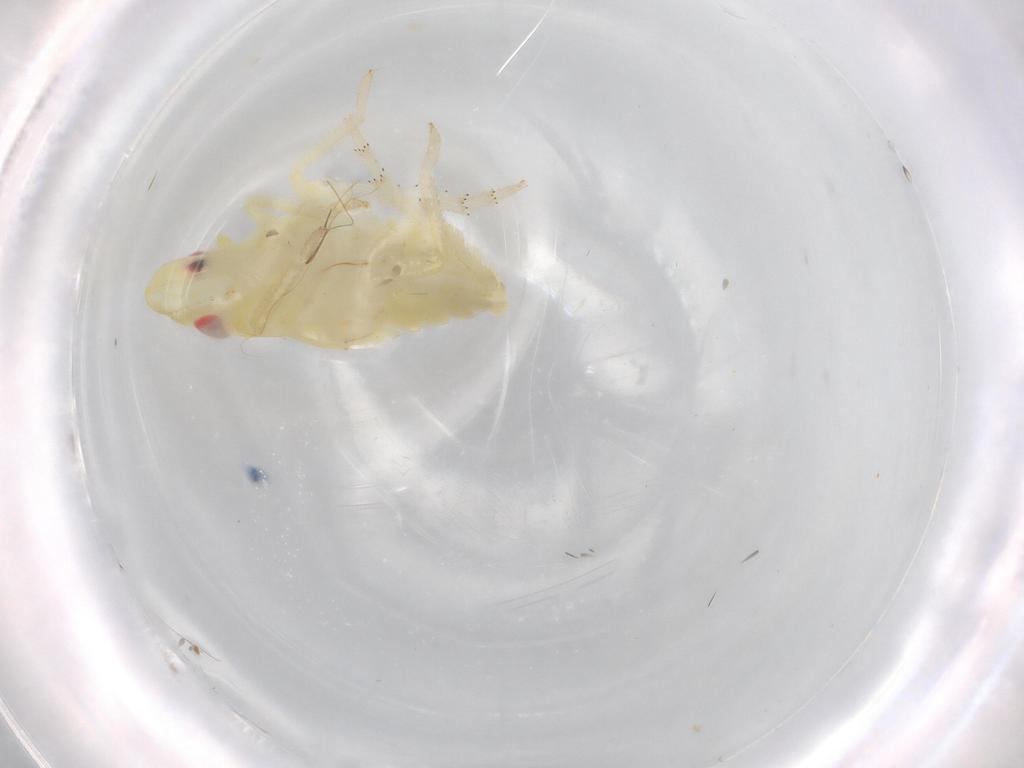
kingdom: Animalia
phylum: Arthropoda
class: Insecta
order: Hemiptera
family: Tropiduchidae
